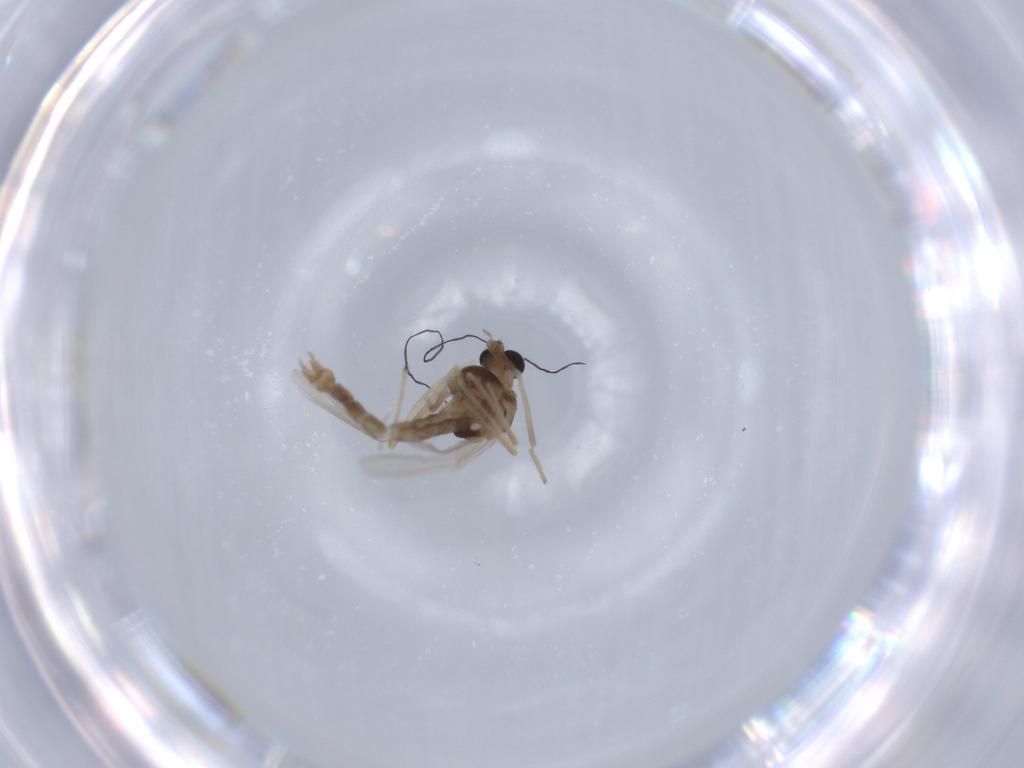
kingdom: Animalia
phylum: Arthropoda
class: Insecta
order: Diptera
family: Chironomidae
